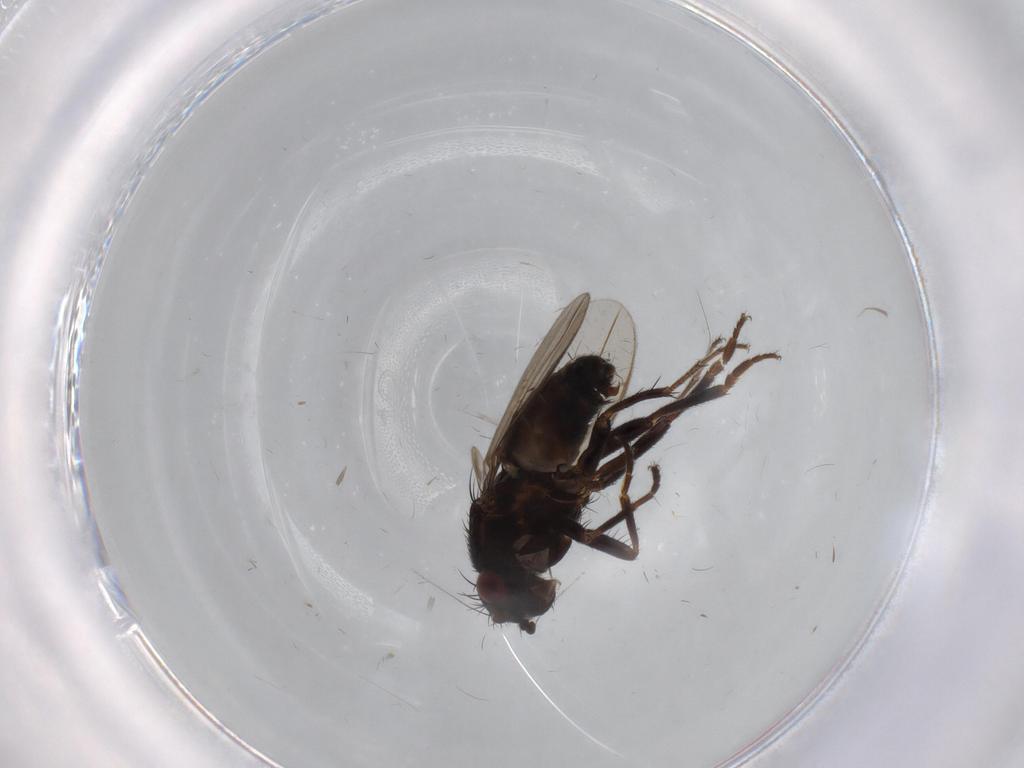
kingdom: Animalia
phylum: Arthropoda
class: Insecta
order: Diptera
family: Sphaeroceridae
